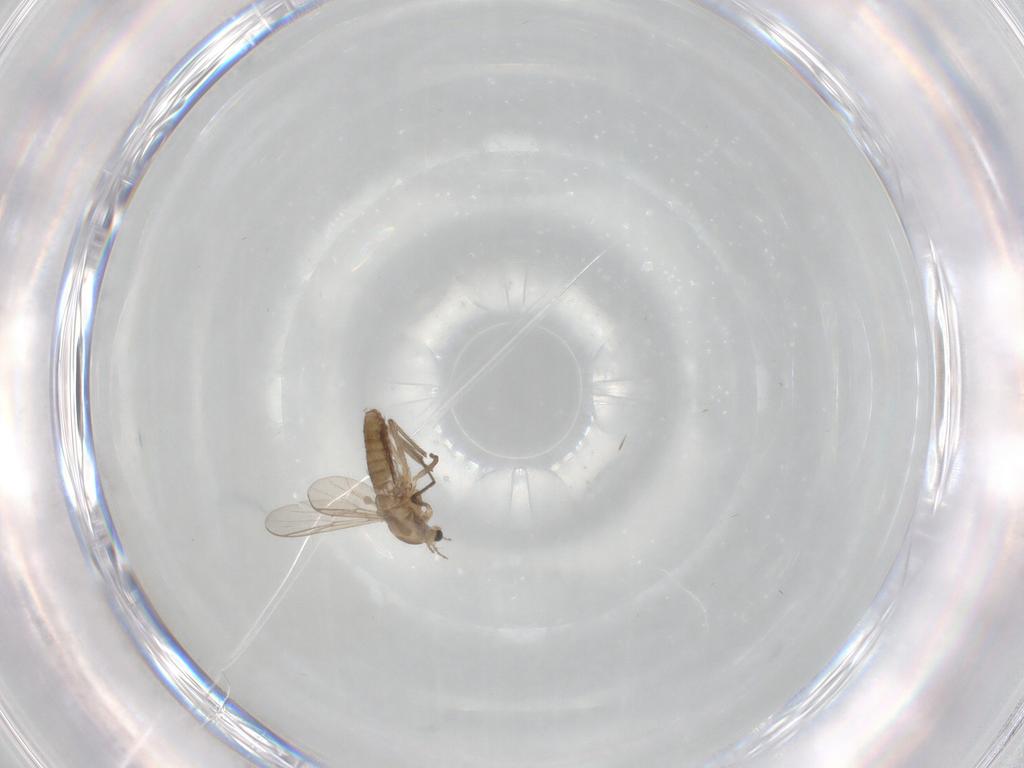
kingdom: Animalia
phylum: Arthropoda
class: Insecta
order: Diptera
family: Chironomidae
